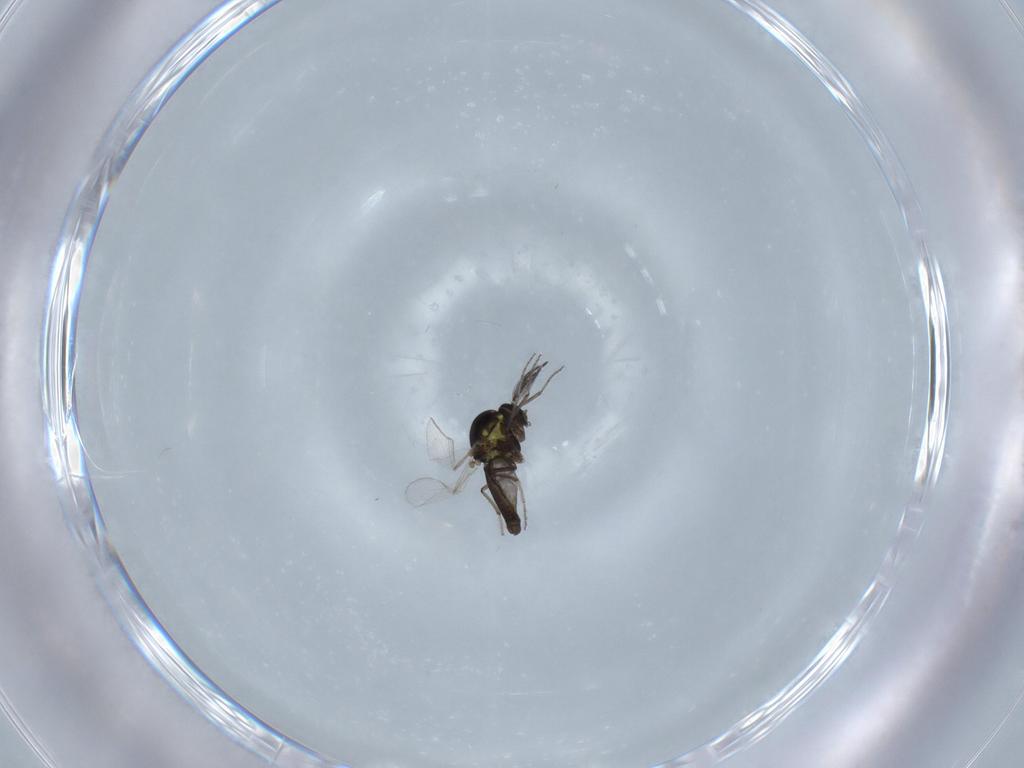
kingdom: Animalia
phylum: Arthropoda
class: Insecta
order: Diptera
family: Ceratopogonidae
